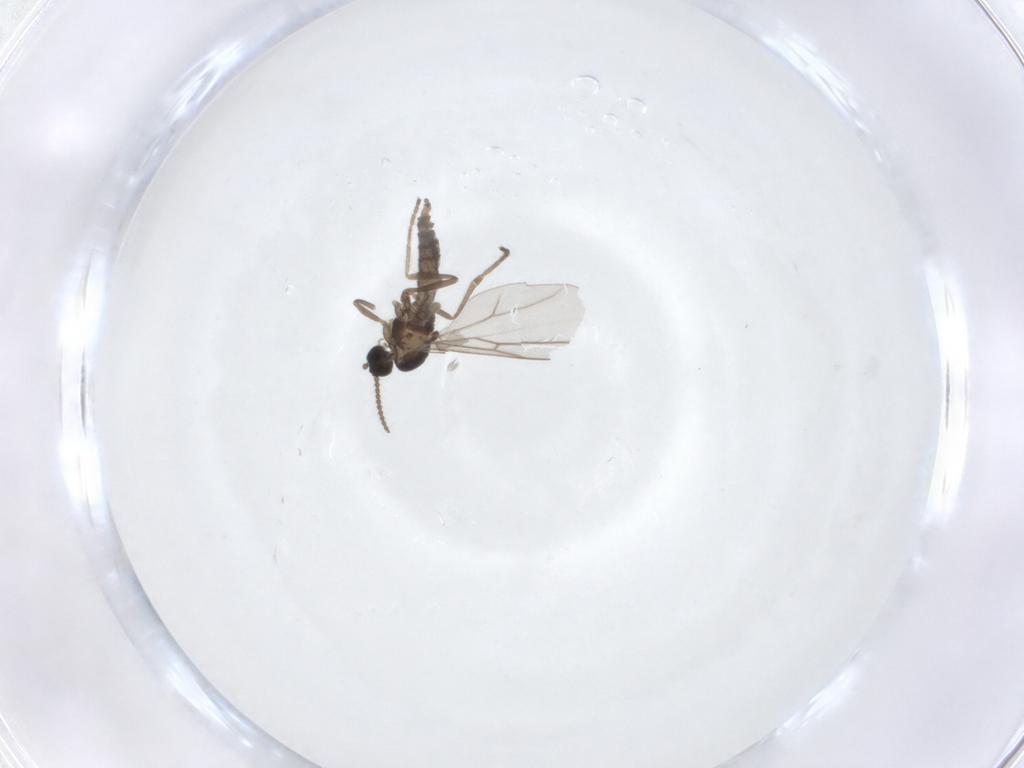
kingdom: Animalia
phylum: Arthropoda
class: Insecta
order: Diptera
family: Cecidomyiidae
